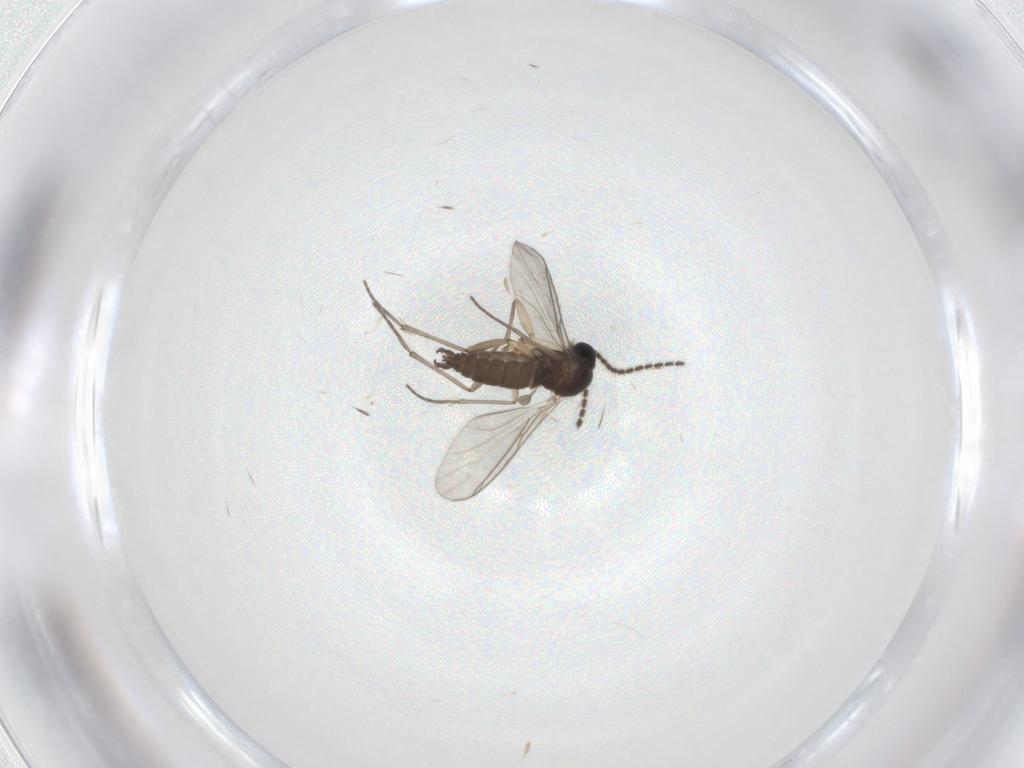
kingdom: Animalia
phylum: Arthropoda
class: Insecta
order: Diptera
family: Sciaridae
